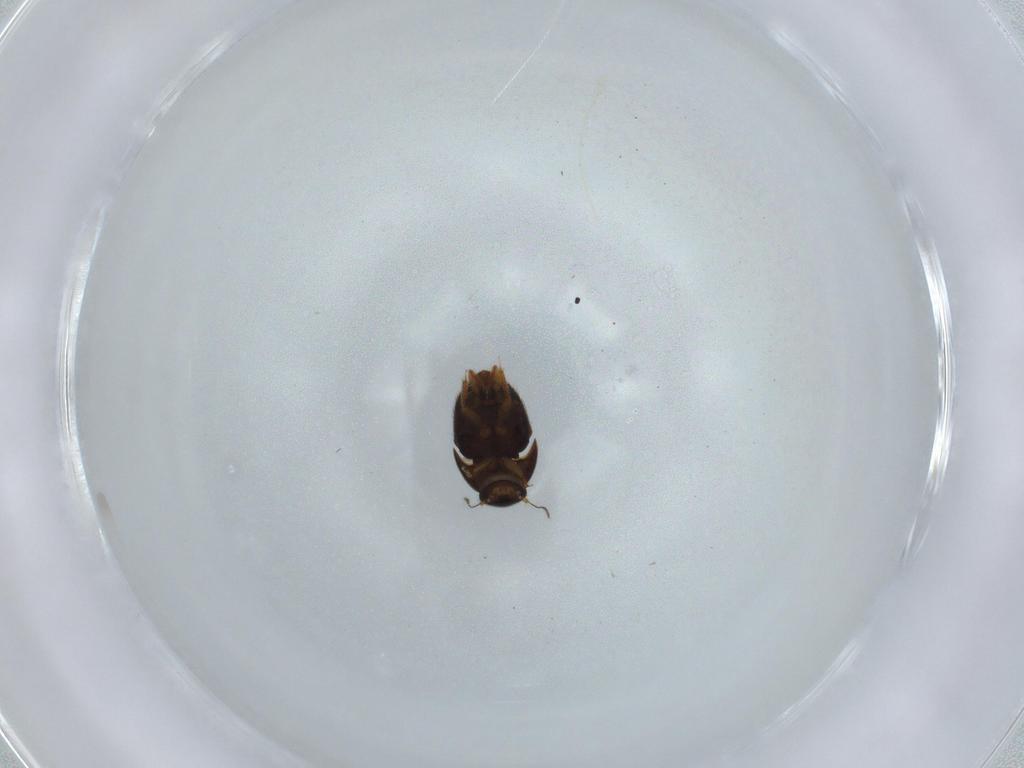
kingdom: Animalia
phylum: Arthropoda
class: Insecta
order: Coleoptera
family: Ptiliidae
